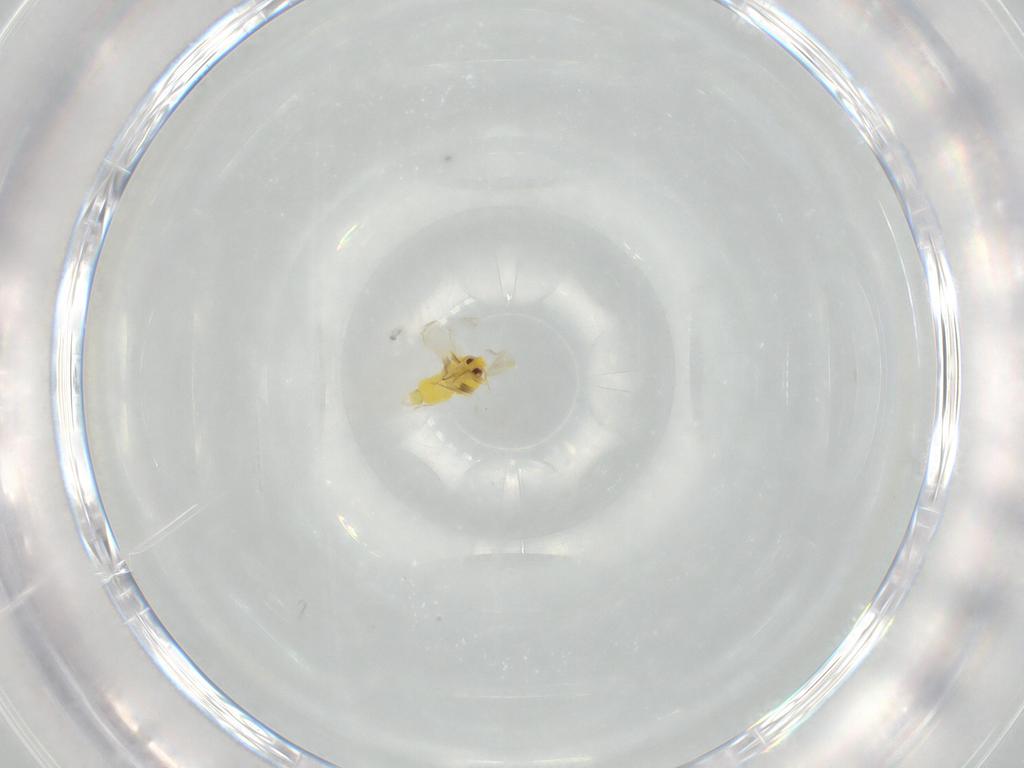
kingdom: Animalia
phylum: Arthropoda
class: Insecta
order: Hemiptera
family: Rhyparochromidae
